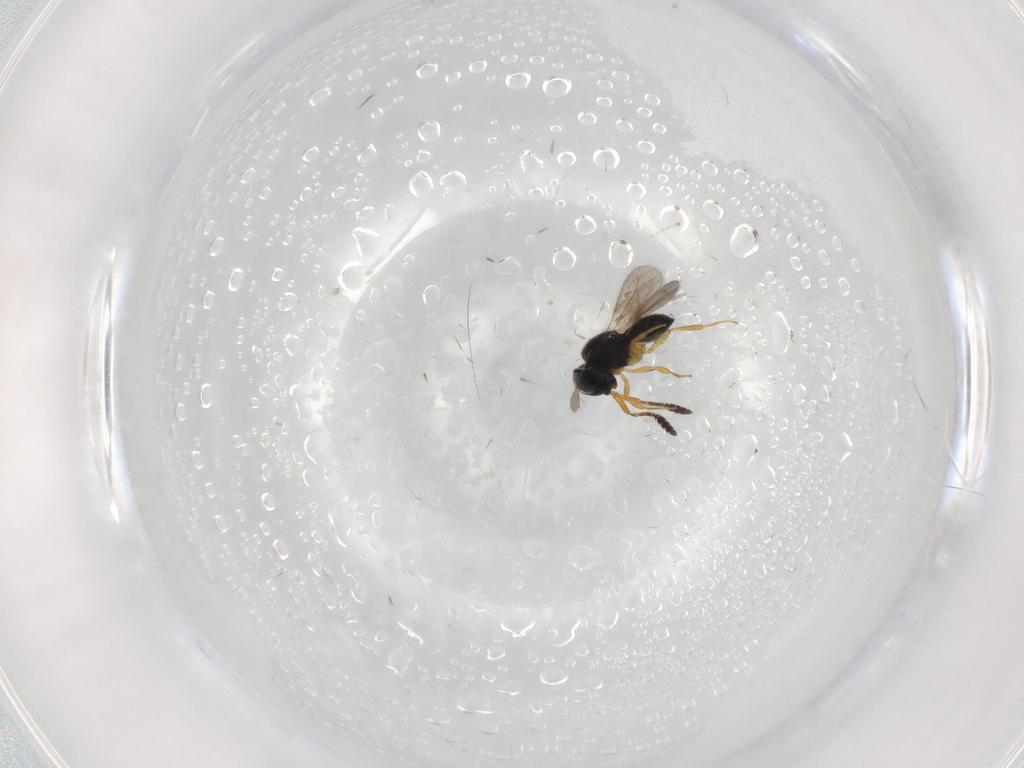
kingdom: Animalia
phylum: Arthropoda
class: Insecta
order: Hymenoptera
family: Scelionidae
